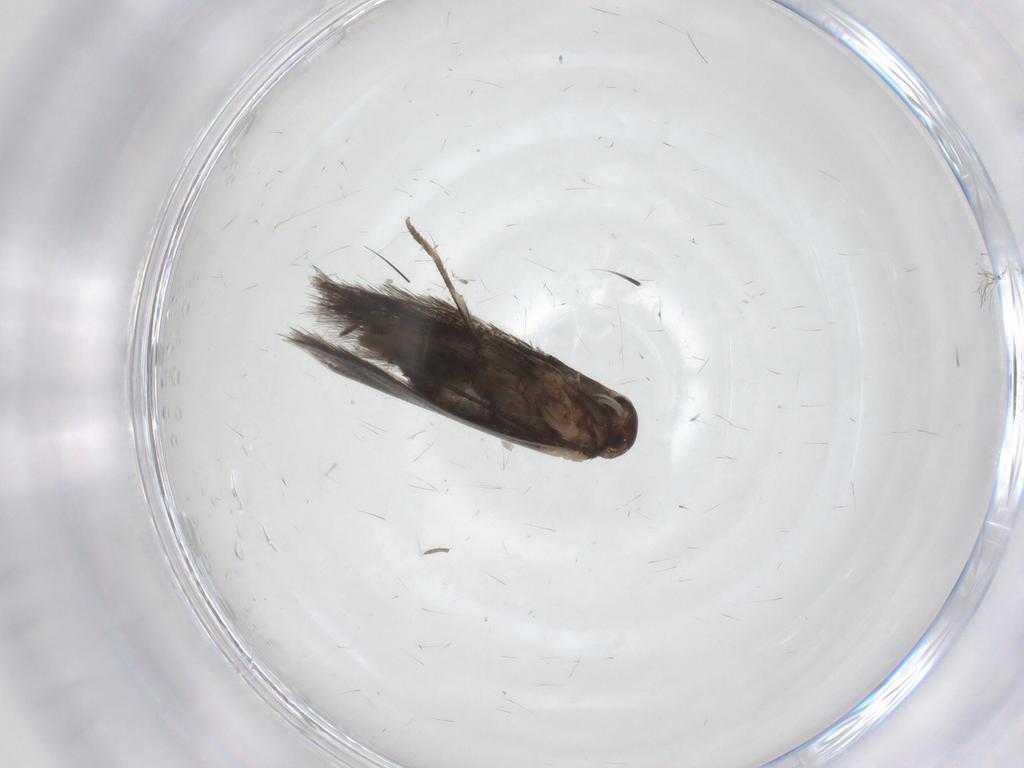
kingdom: Animalia
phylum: Arthropoda
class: Insecta
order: Lepidoptera
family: Elachistidae
